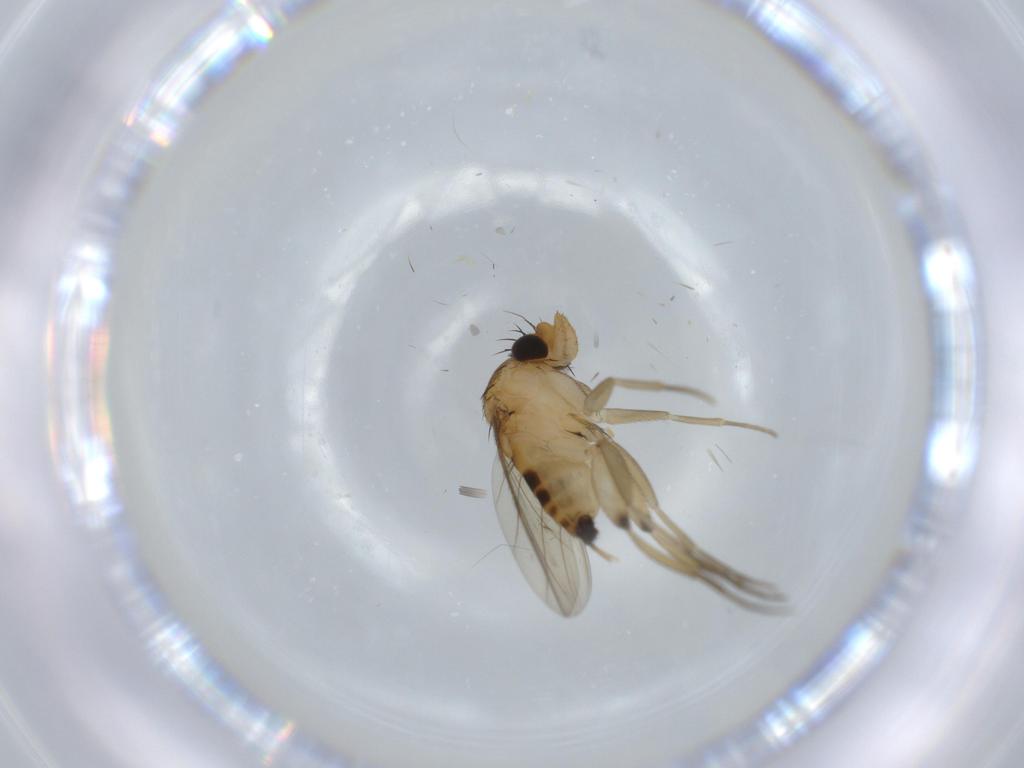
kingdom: Animalia
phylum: Arthropoda
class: Insecta
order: Diptera
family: Phoridae
